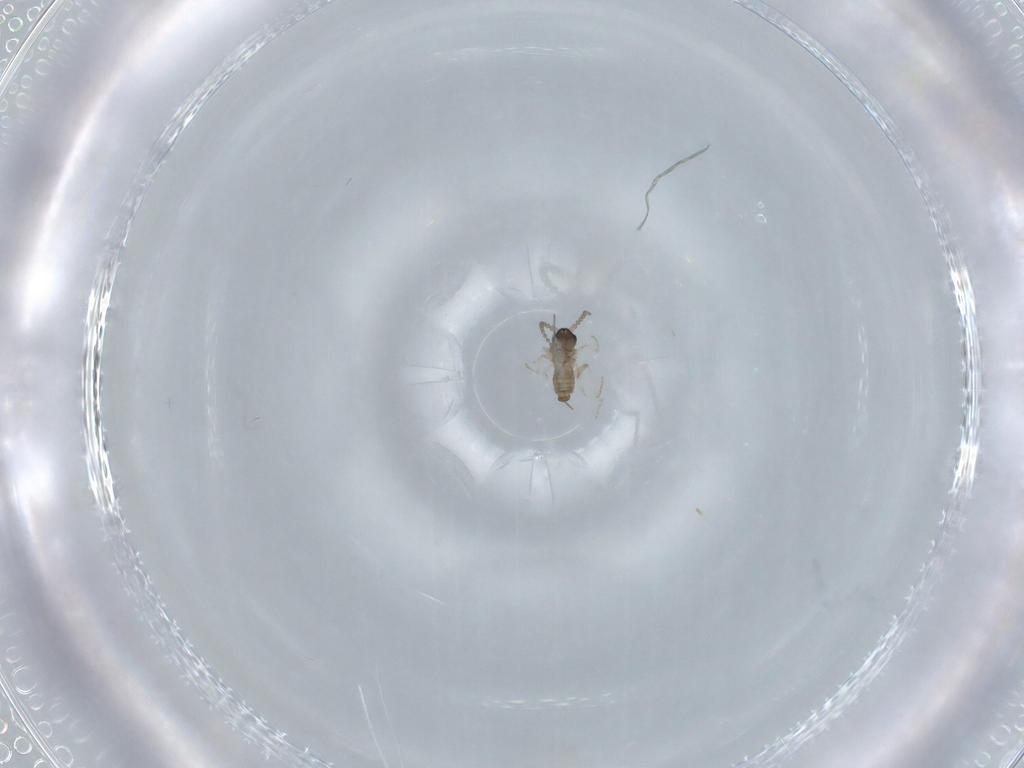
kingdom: Animalia
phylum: Arthropoda
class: Insecta
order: Diptera
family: Cecidomyiidae
